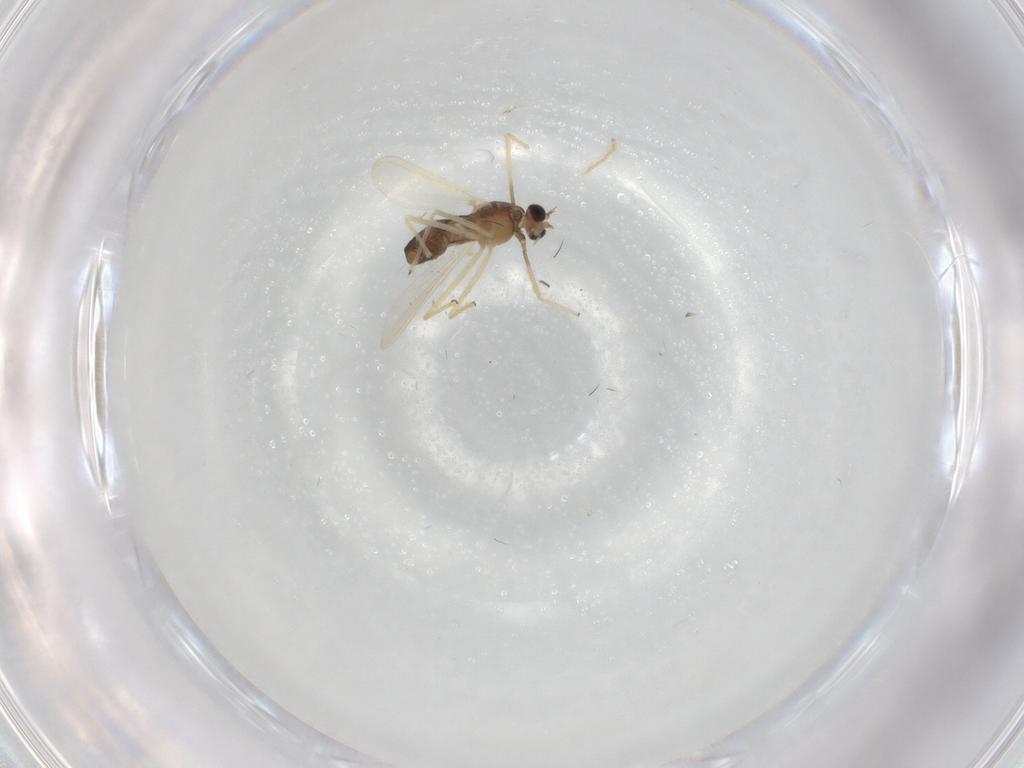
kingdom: Animalia
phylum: Arthropoda
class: Insecta
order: Diptera
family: Chironomidae
